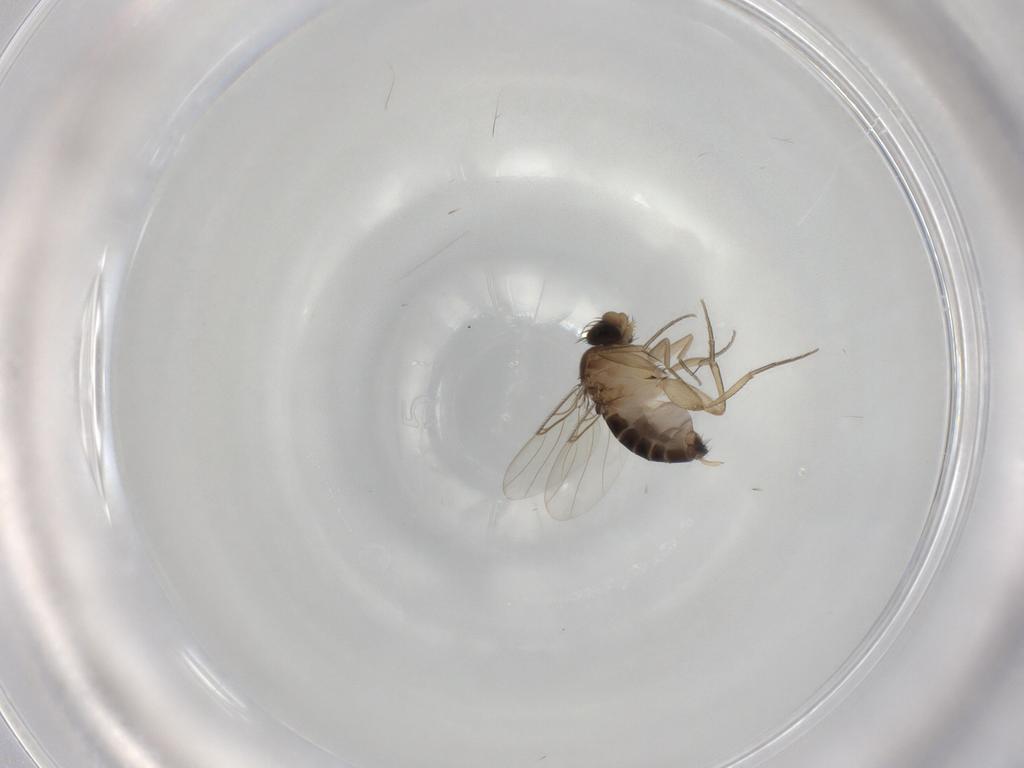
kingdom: Animalia
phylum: Arthropoda
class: Insecta
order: Diptera
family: Phoridae
